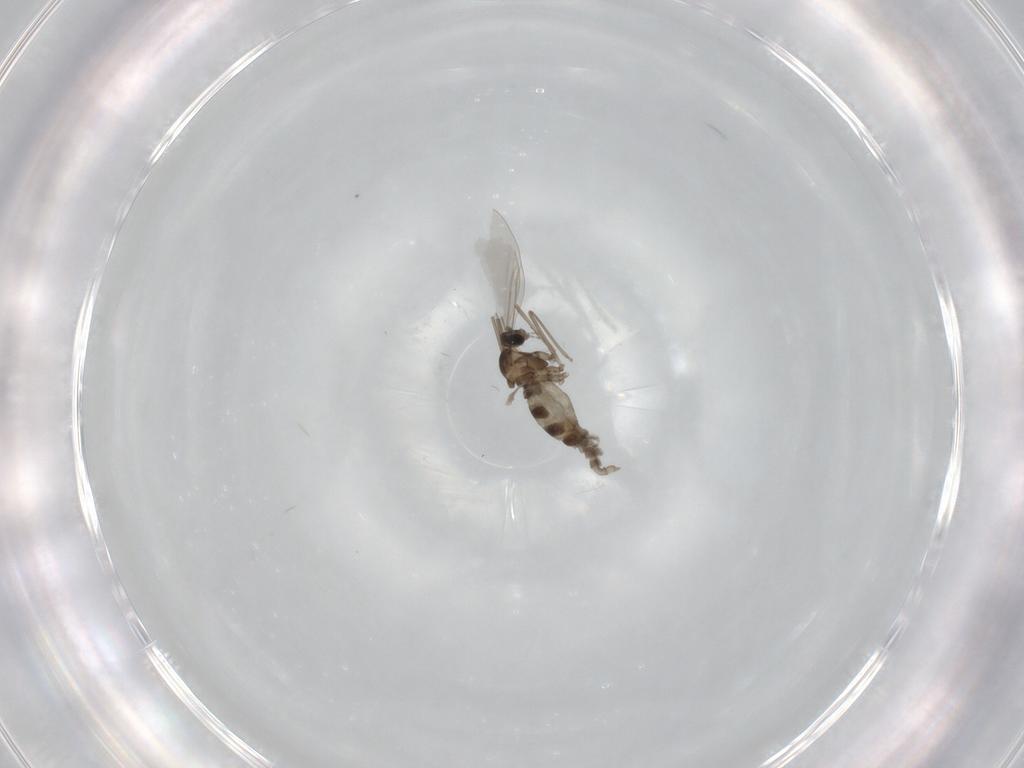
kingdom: Animalia
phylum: Arthropoda
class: Insecta
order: Diptera
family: Cecidomyiidae
